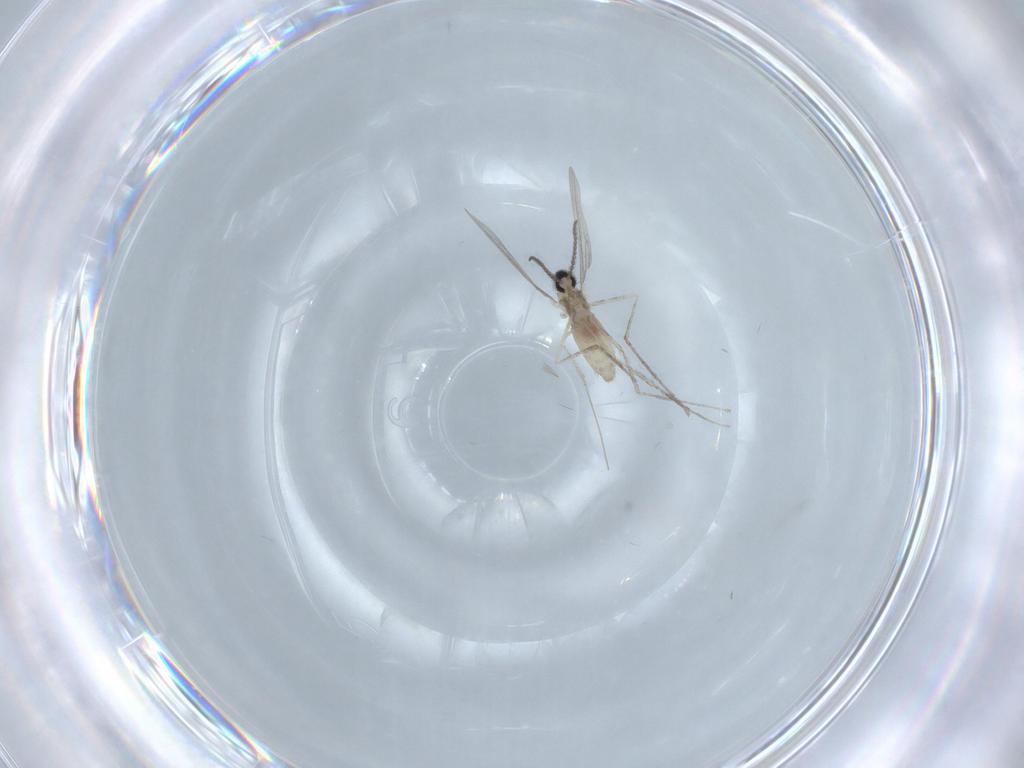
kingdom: Animalia
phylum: Arthropoda
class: Insecta
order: Diptera
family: Cecidomyiidae
